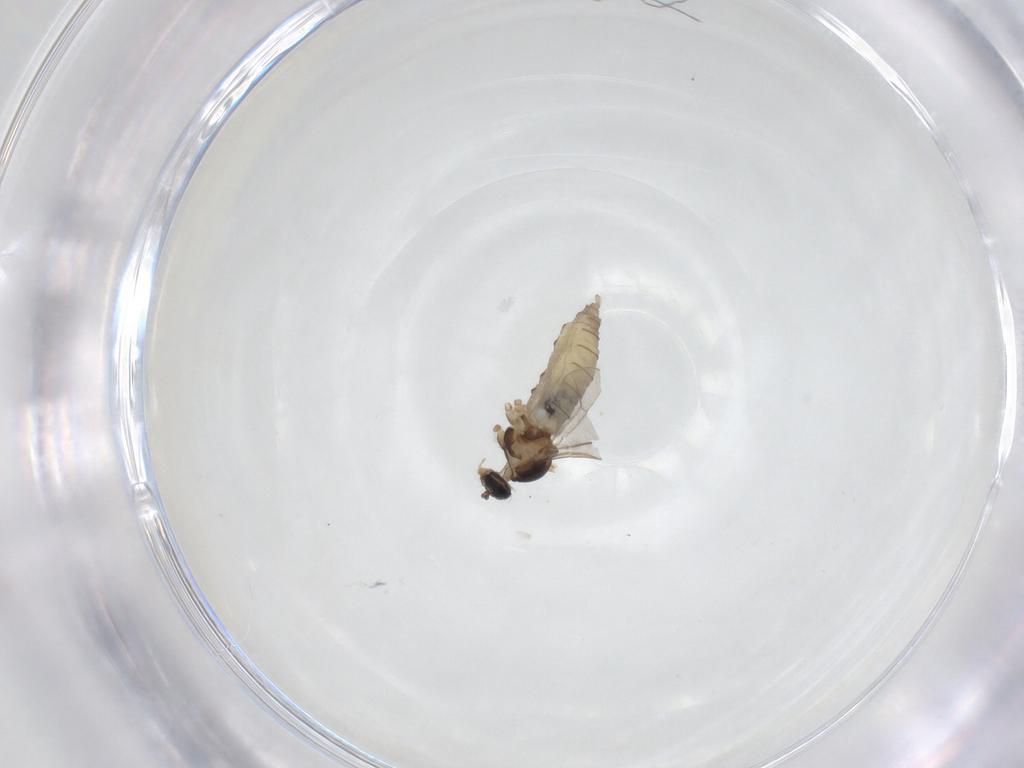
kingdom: Animalia
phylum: Arthropoda
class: Insecta
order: Diptera
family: Cecidomyiidae
